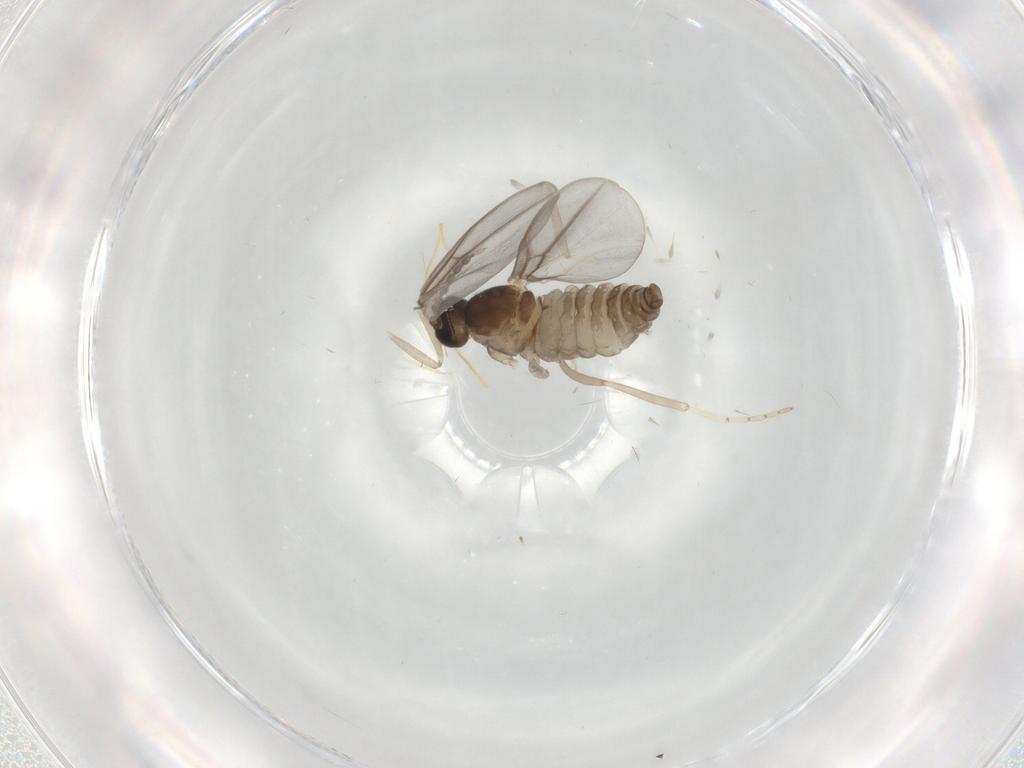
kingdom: Animalia
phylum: Arthropoda
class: Insecta
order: Diptera
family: Cecidomyiidae
